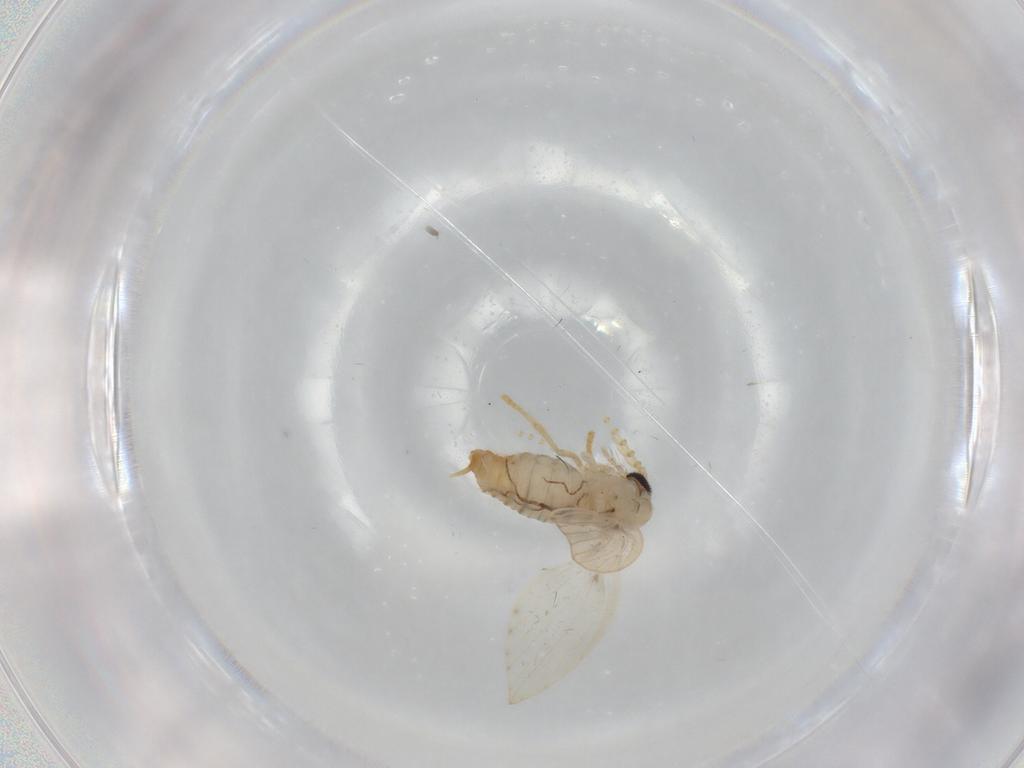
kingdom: Animalia
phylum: Arthropoda
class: Insecta
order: Diptera
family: Psychodidae
